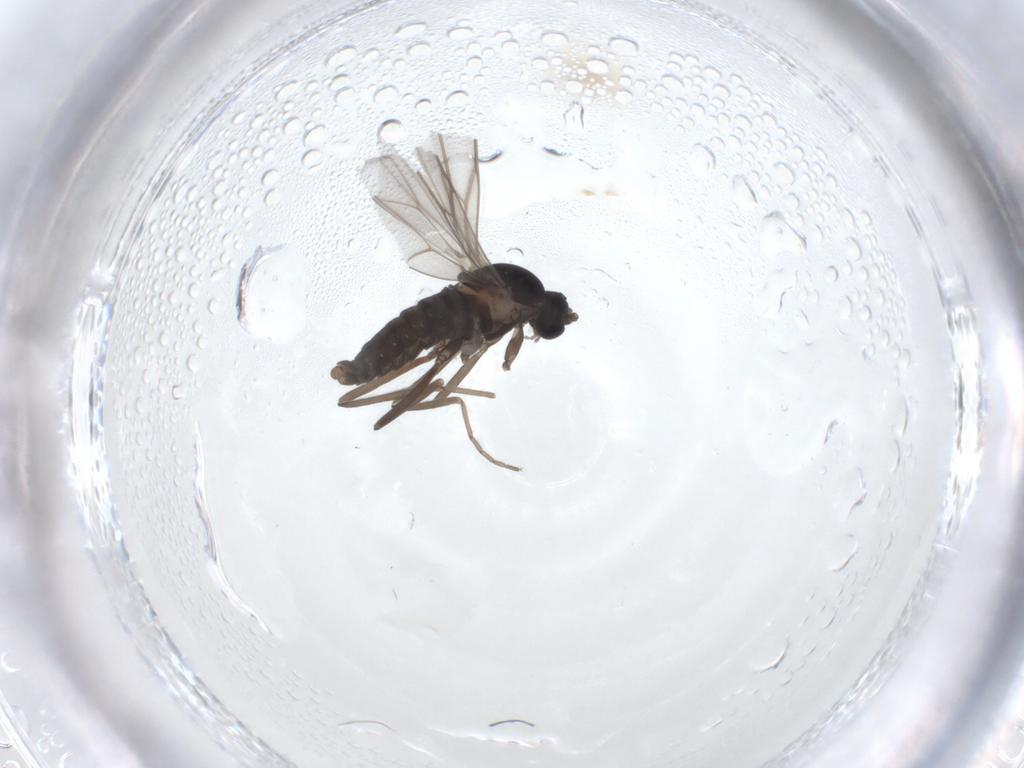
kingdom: Animalia
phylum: Arthropoda
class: Insecta
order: Diptera
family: Cecidomyiidae
